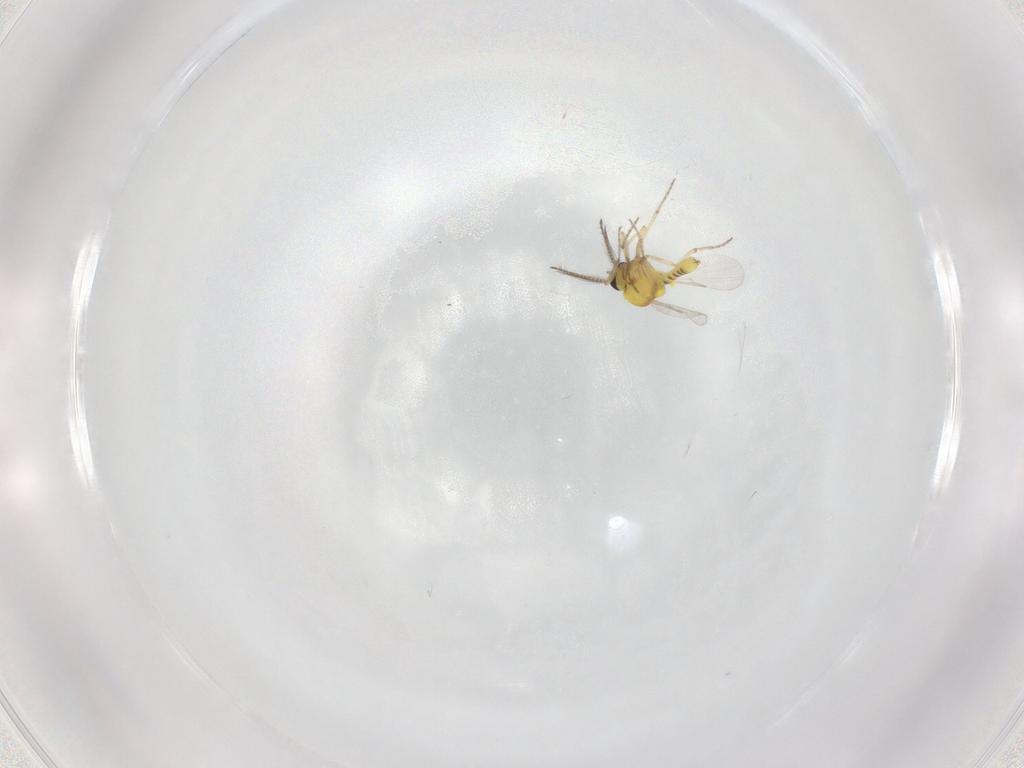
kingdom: Animalia
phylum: Arthropoda
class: Insecta
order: Diptera
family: Ceratopogonidae
